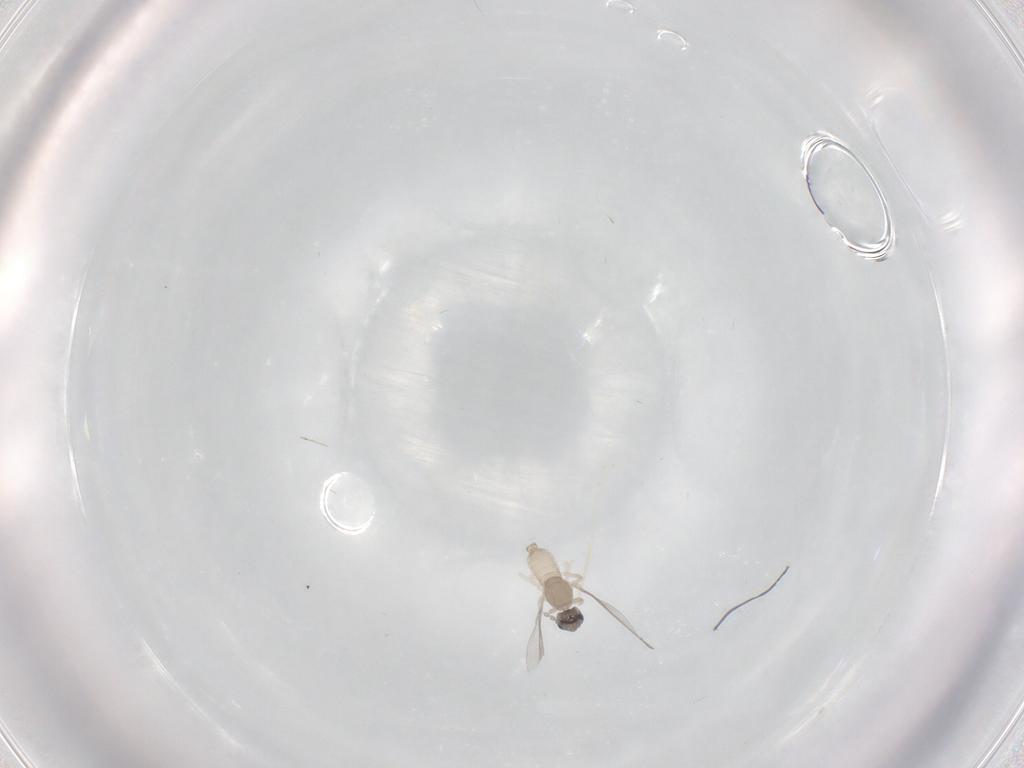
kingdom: Animalia
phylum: Arthropoda
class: Insecta
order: Diptera
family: Cecidomyiidae
